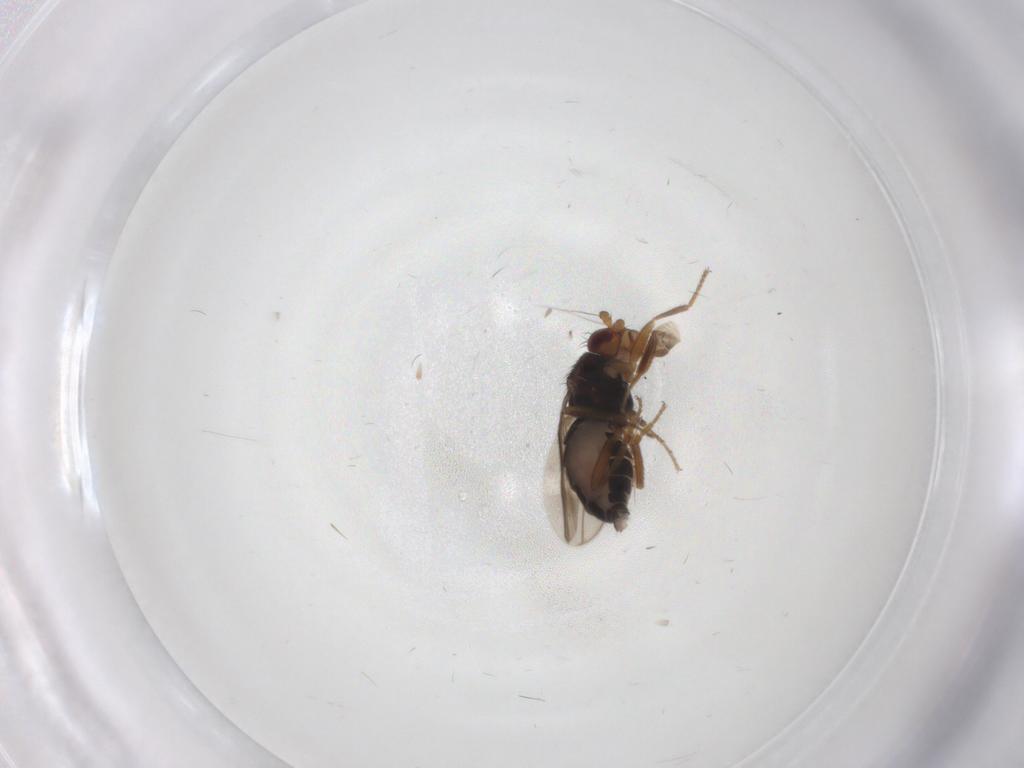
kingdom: Animalia
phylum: Arthropoda
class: Insecta
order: Diptera
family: Sphaeroceridae
